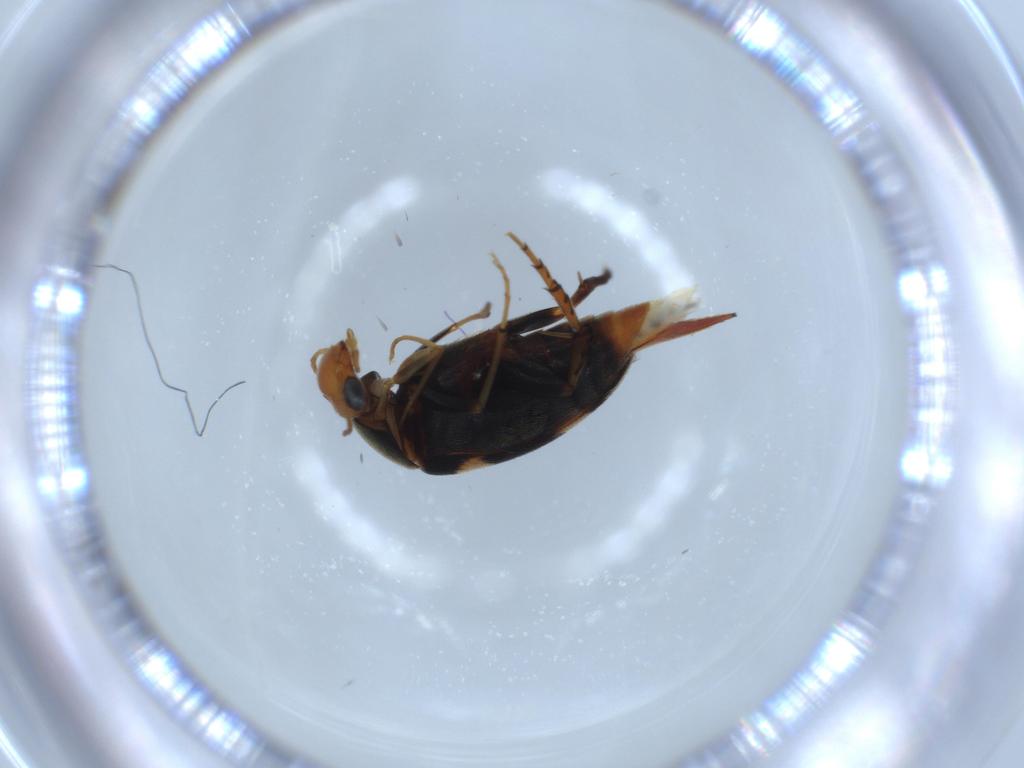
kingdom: Animalia
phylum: Arthropoda
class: Insecta
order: Coleoptera
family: Mordellidae
